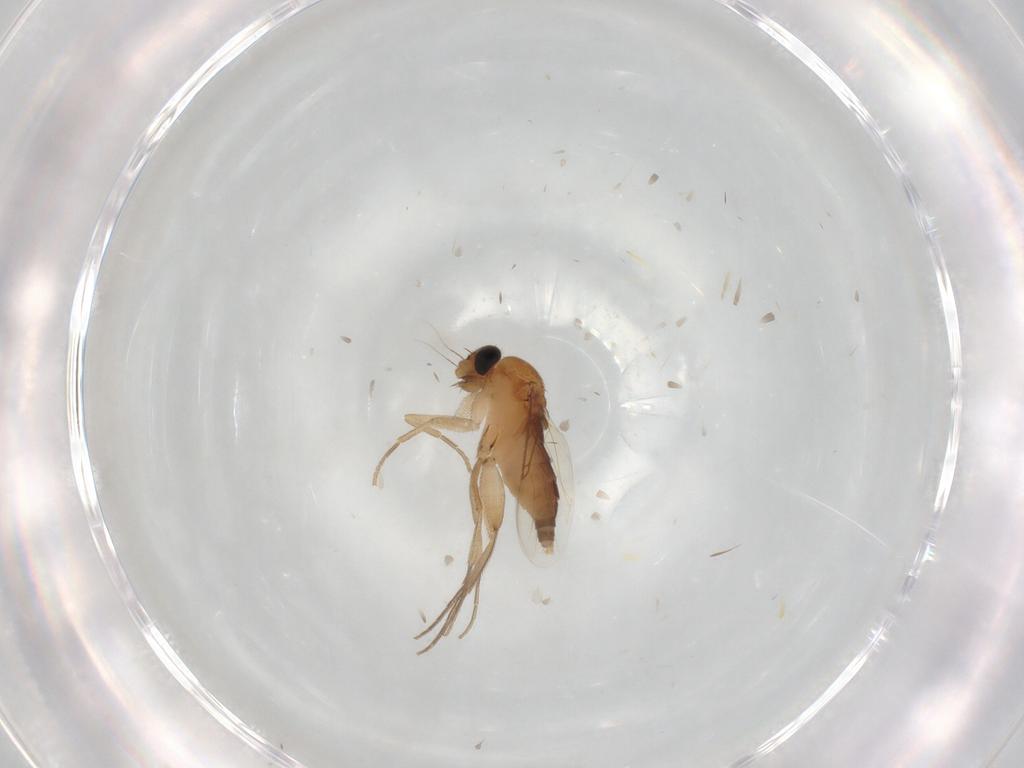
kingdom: Animalia
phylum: Arthropoda
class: Insecta
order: Diptera
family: Phoridae
